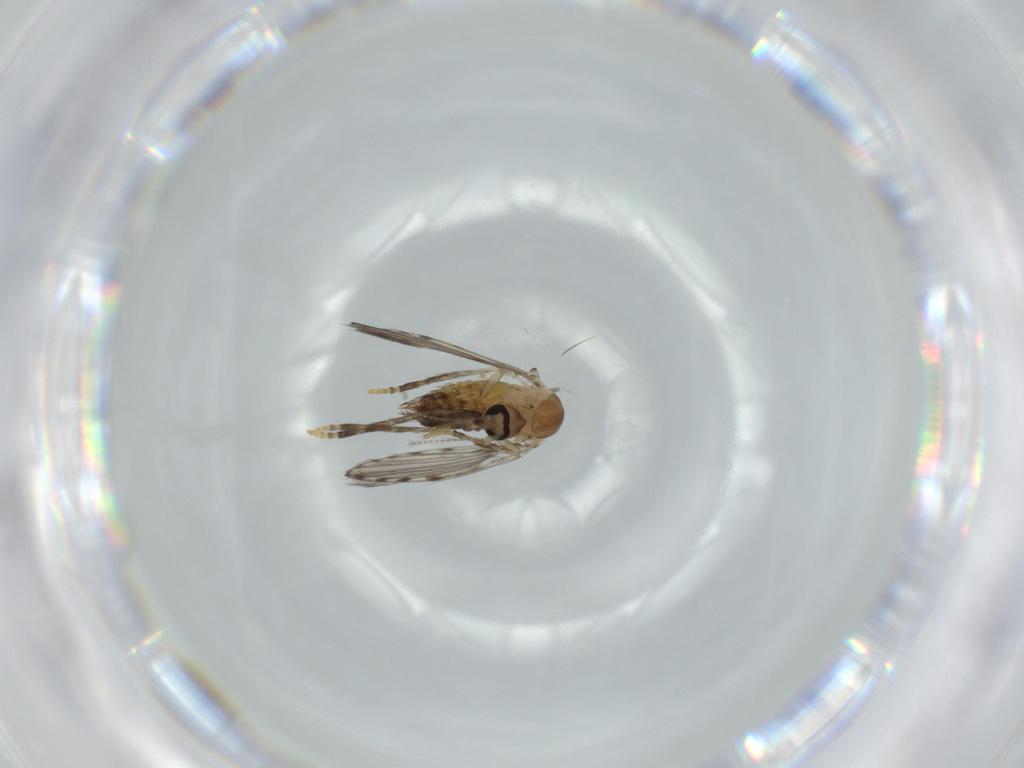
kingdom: Animalia
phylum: Arthropoda
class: Insecta
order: Diptera
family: Psychodidae
